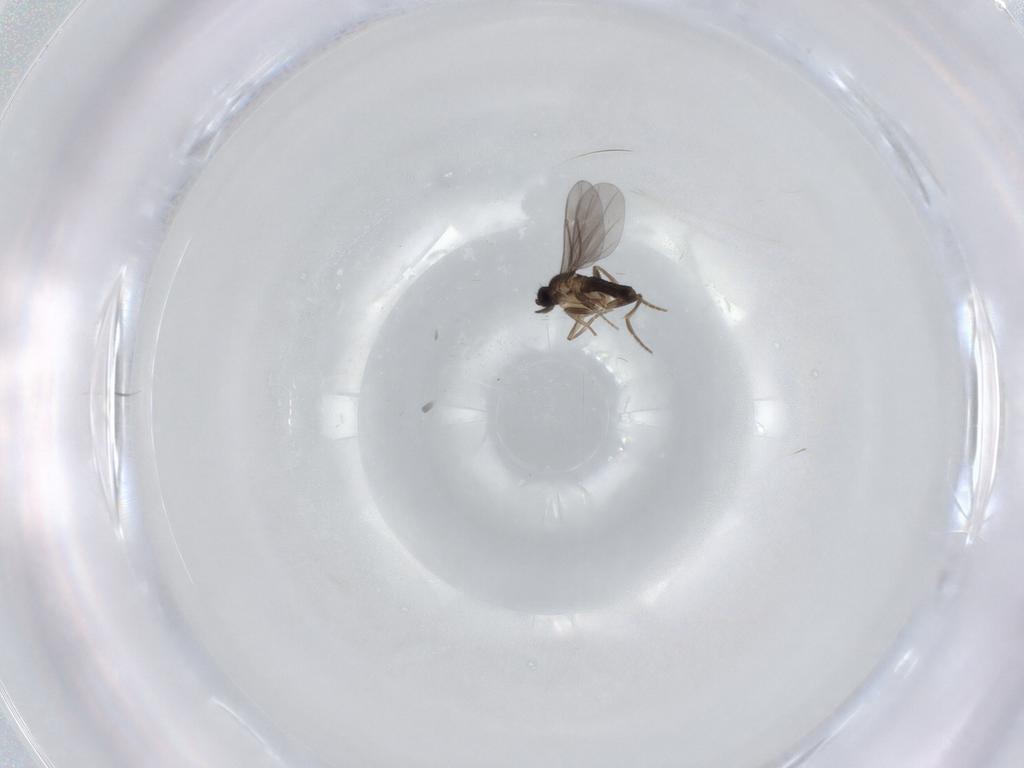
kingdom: Animalia
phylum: Arthropoda
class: Insecta
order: Diptera
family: Phoridae
